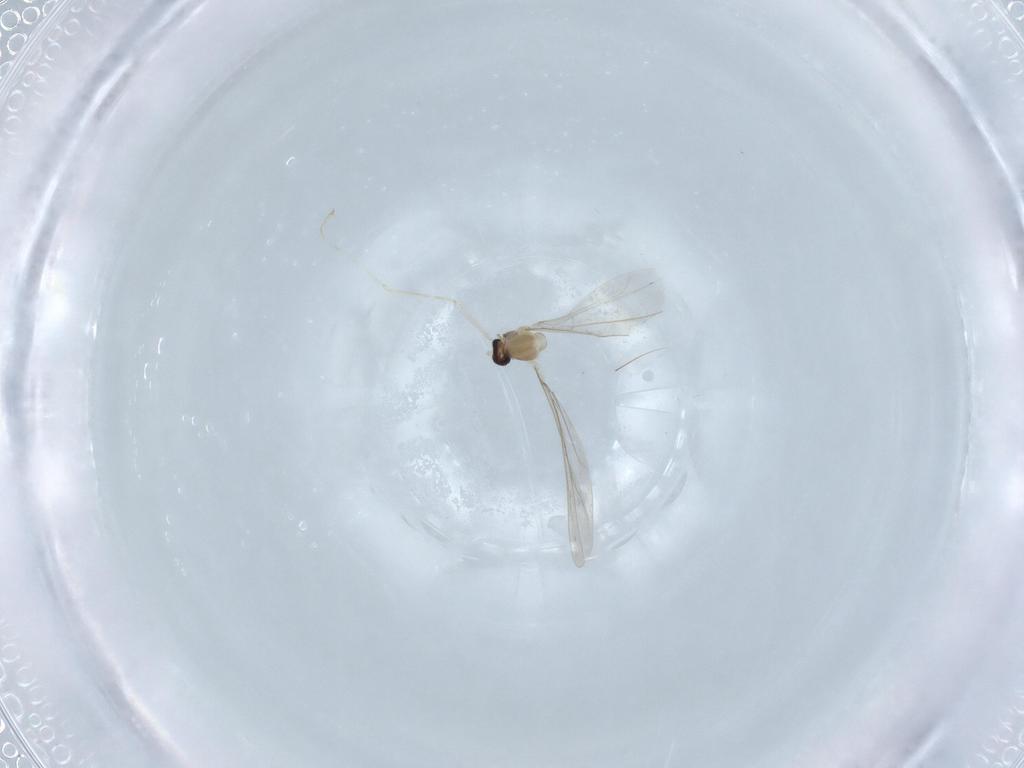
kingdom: Animalia
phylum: Arthropoda
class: Insecta
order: Diptera
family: Cecidomyiidae
